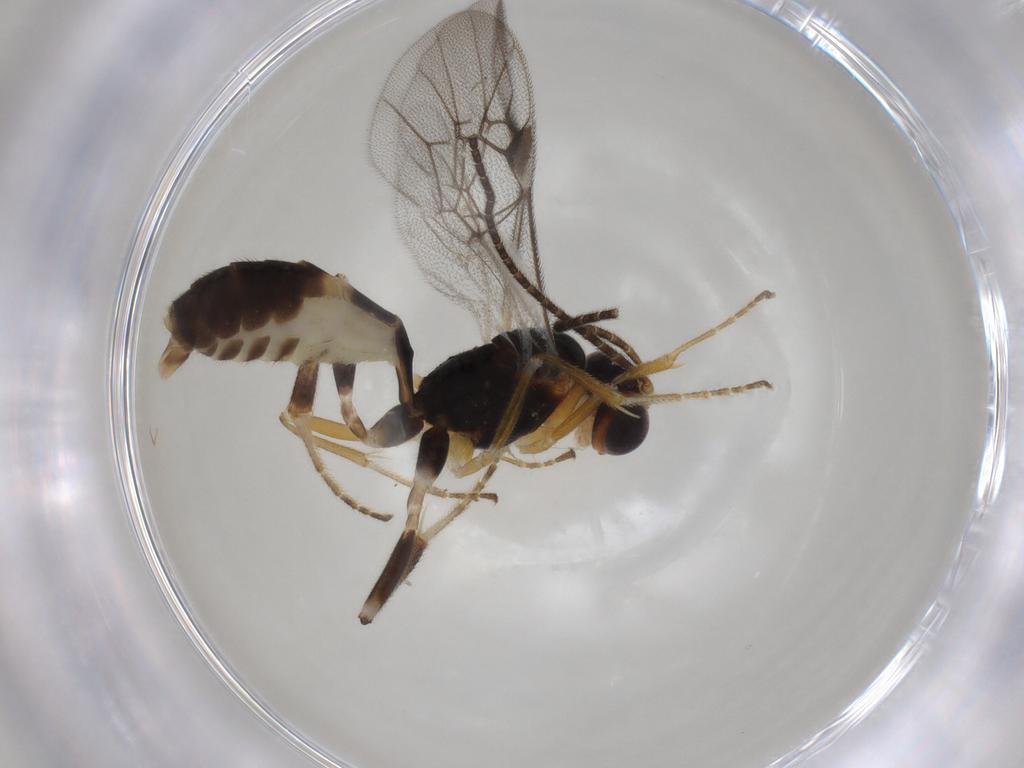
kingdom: Animalia
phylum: Arthropoda
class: Insecta
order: Hymenoptera
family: Ichneumonidae
